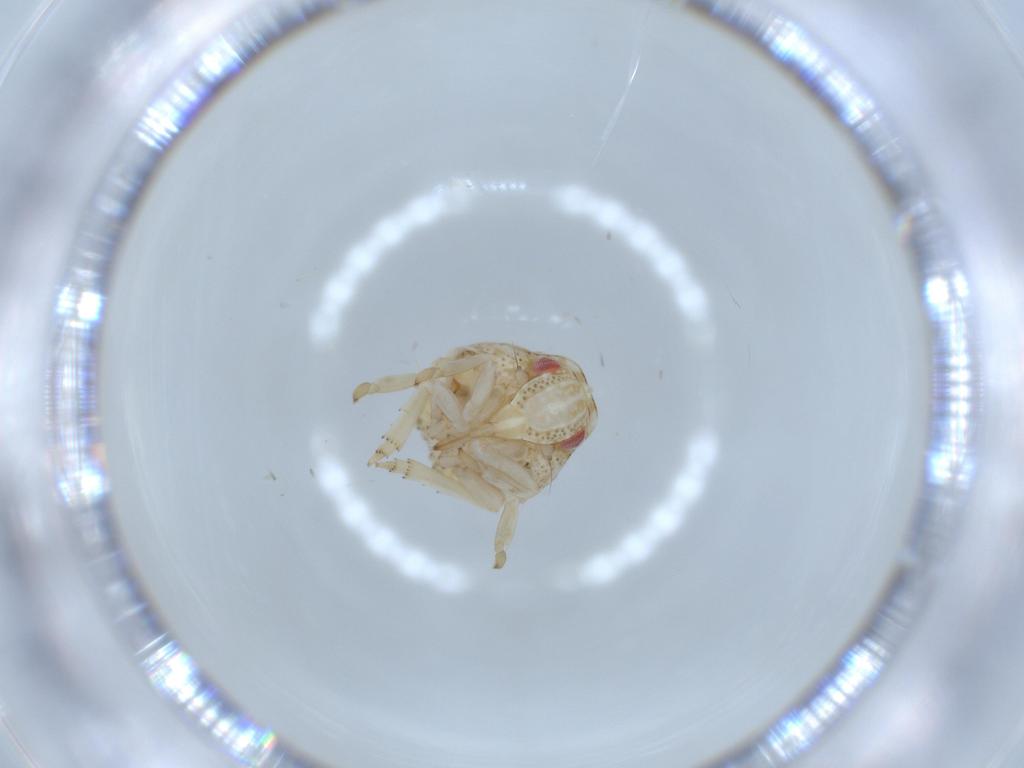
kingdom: Animalia
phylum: Arthropoda
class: Insecta
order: Hemiptera
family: Acanaloniidae
